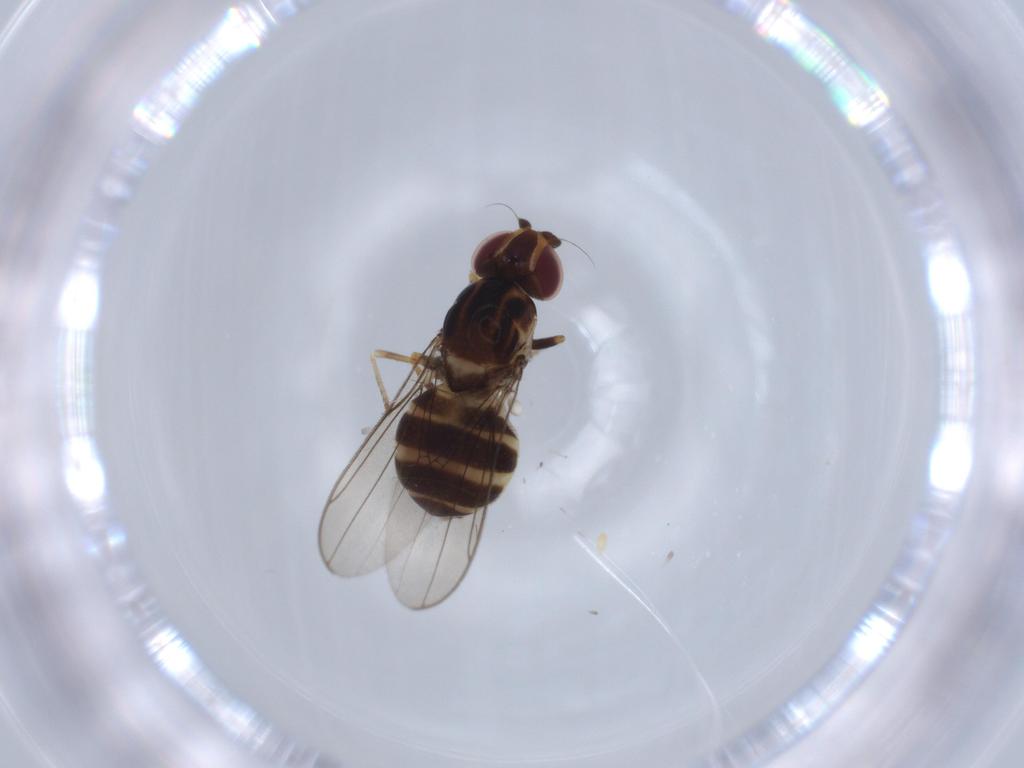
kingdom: Animalia
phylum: Arthropoda
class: Insecta
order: Diptera
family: Chloropidae
